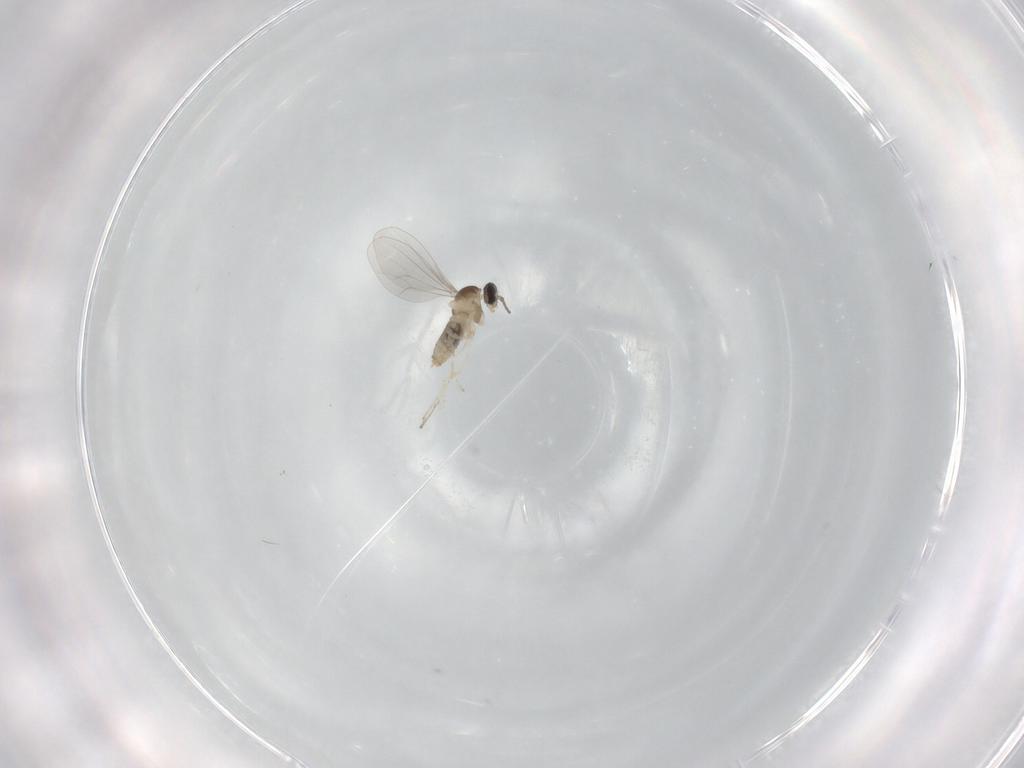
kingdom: Animalia
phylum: Arthropoda
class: Insecta
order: Diptera
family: Cecidomyiidae
